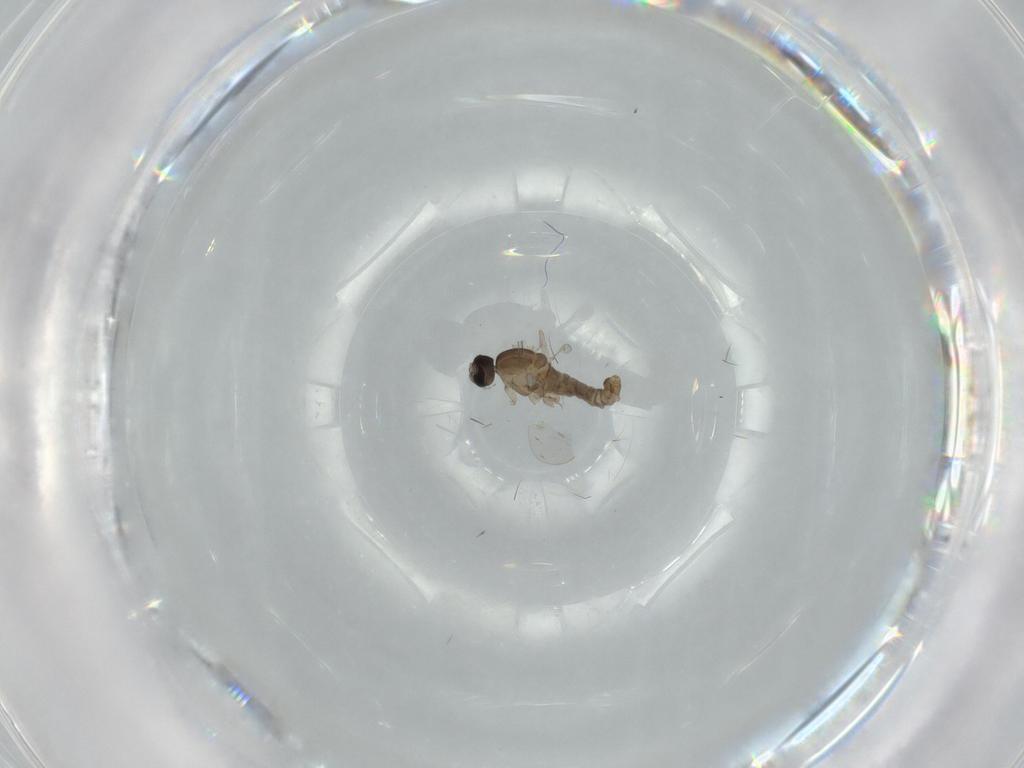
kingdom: Animalia
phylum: Arthropoda
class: Insecta
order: Diptera
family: Cecidomyiidae
